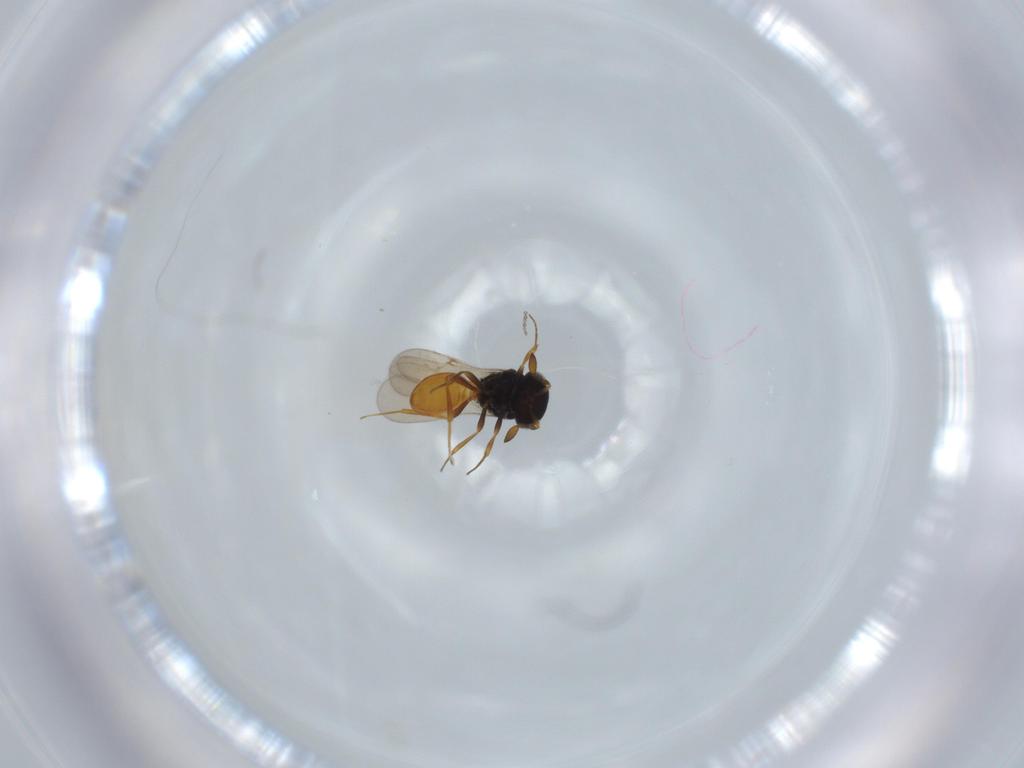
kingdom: Animalia
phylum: Arthropoda
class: Insecta
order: Hymenoptera
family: Scelionidae
